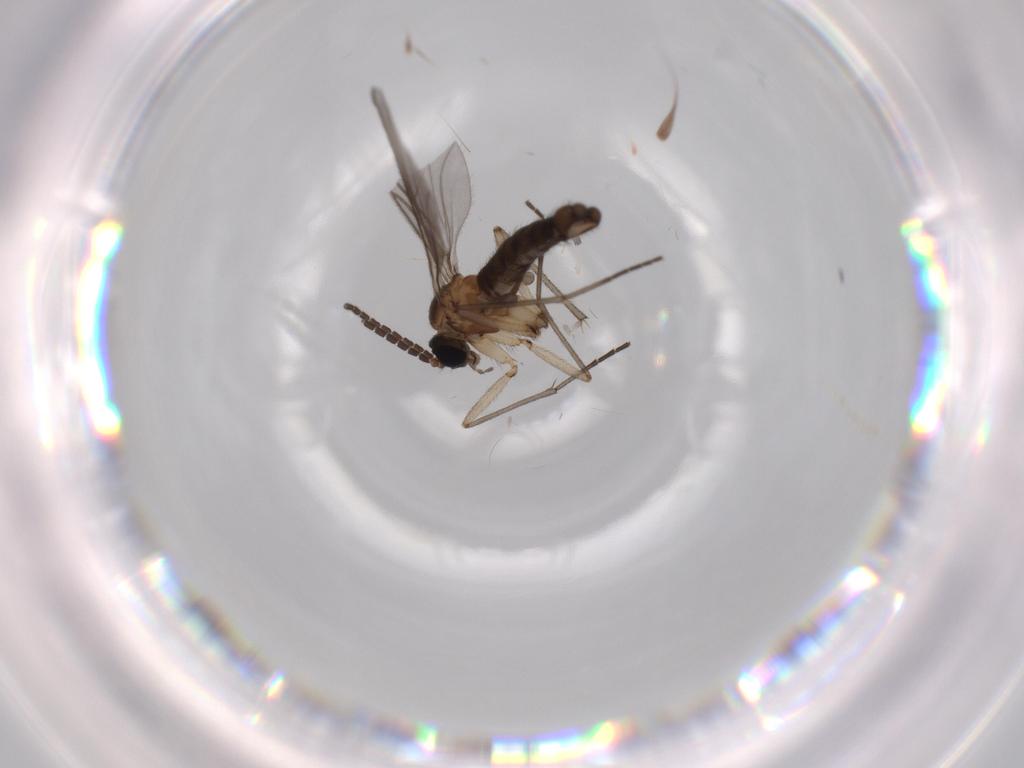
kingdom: Animalia
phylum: Arthropoda
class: Insecta
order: Diptera
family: Sciaridae
